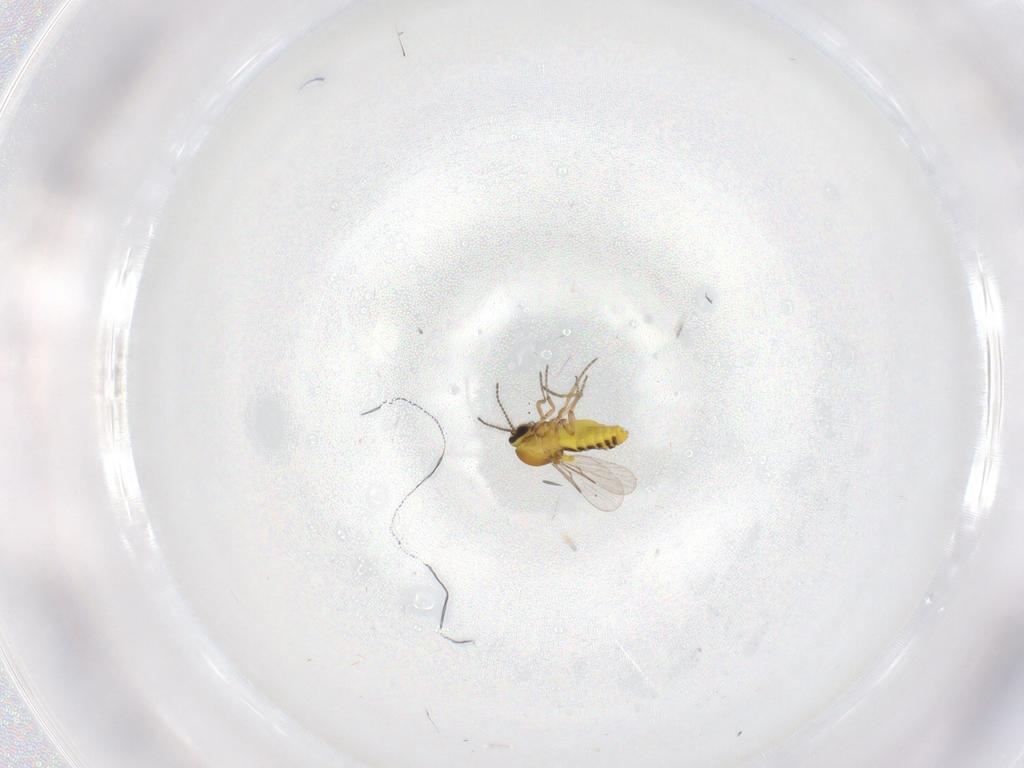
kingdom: Animalia
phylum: Arthropoda
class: Insecta
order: Diptera
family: Ceratopogonidae
